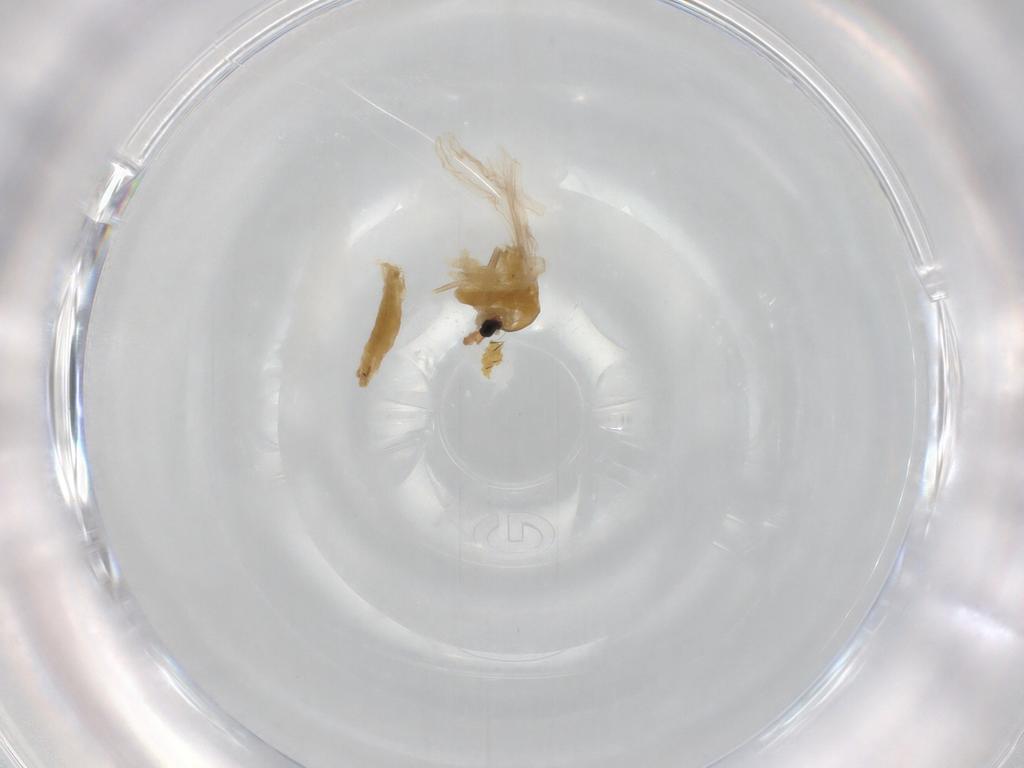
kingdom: Animalia
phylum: Arthropoda
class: Insecta
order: Diptera
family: Glossinidae
